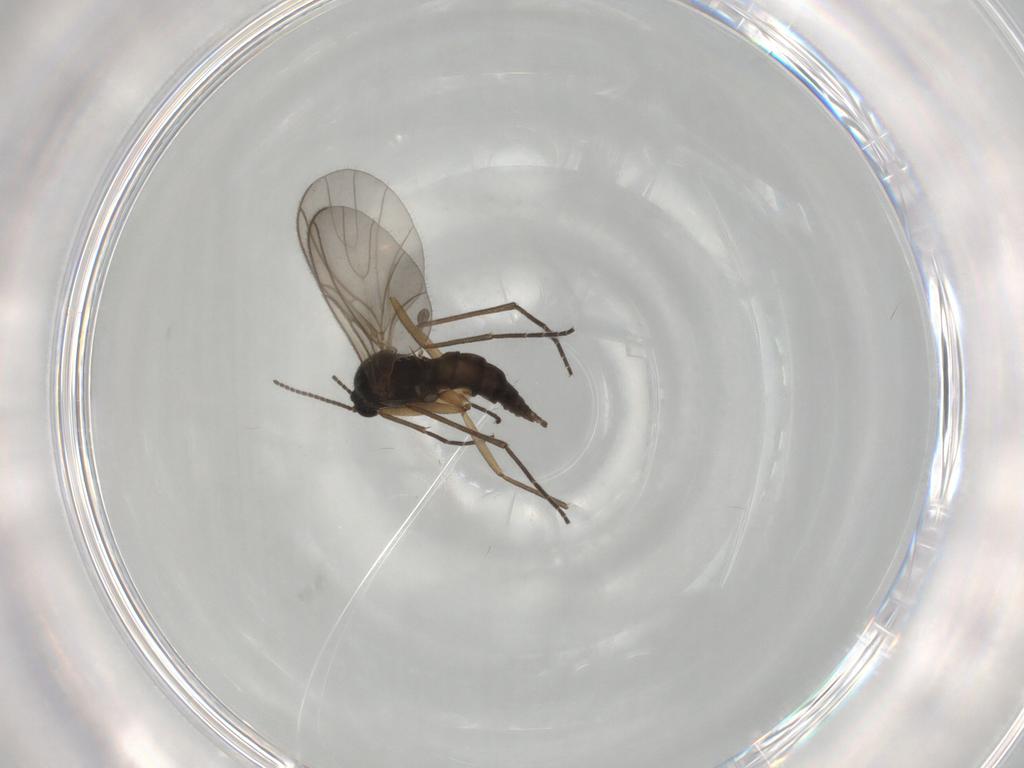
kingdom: Animalia
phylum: Arthropoda
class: Insecta
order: Diptera
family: Sciaridae
